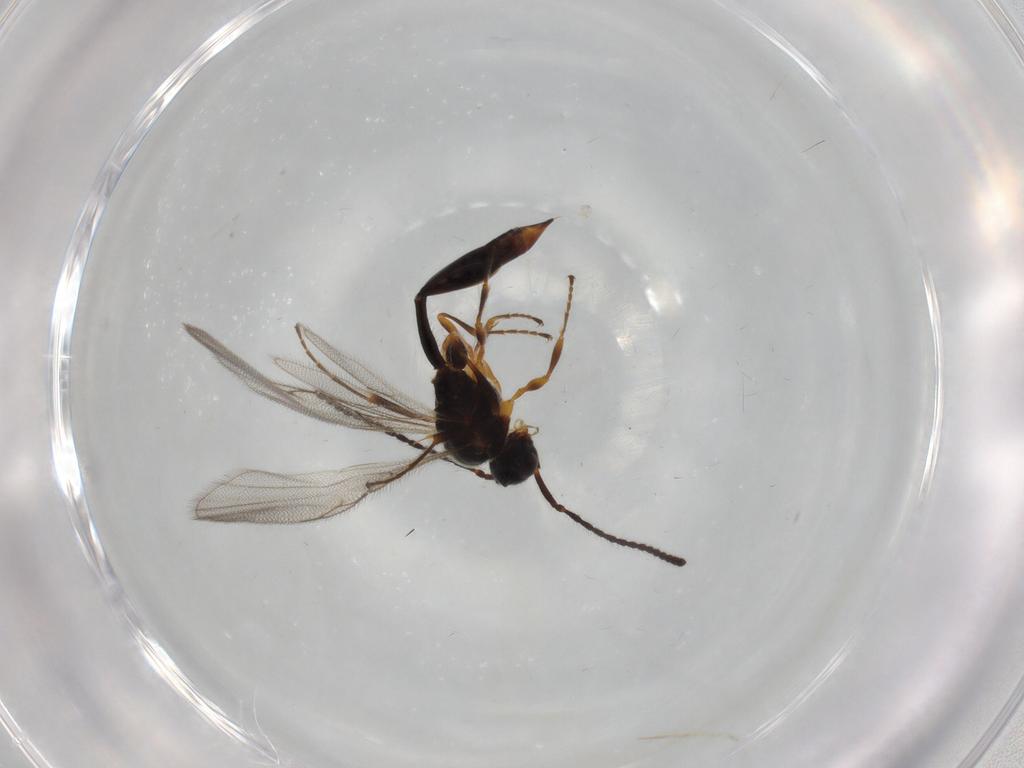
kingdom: Animalia
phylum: Arthropoda
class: Insecta
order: Hymenoptera
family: Diapriidae
